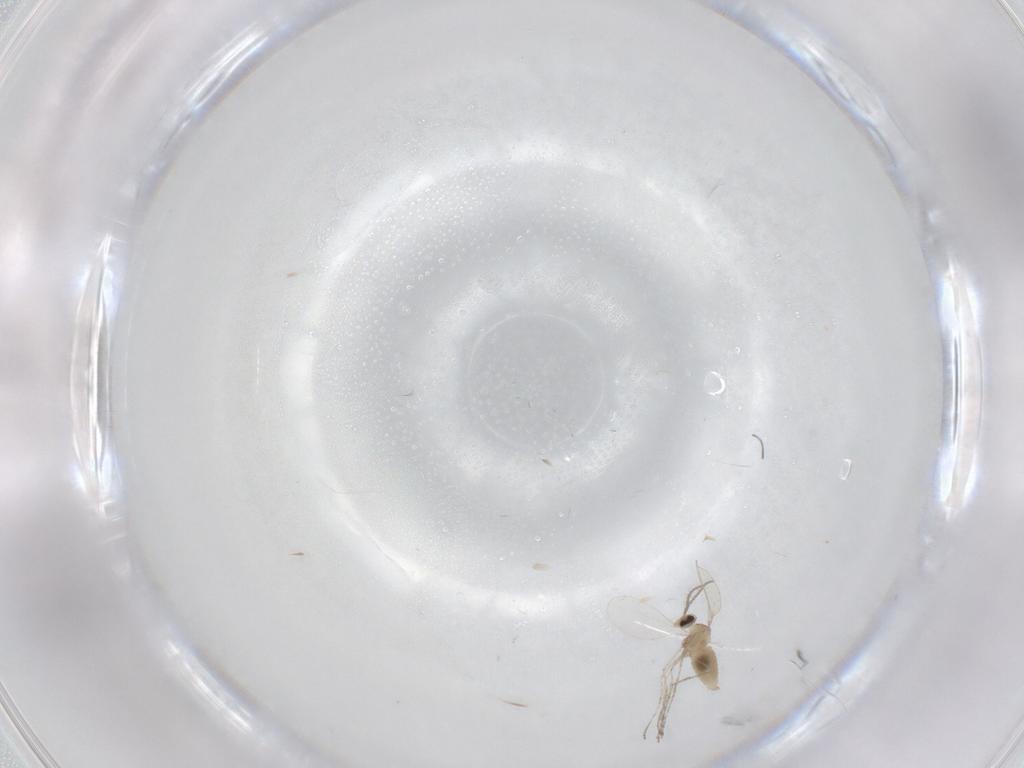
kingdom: Animalia
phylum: Arthropoda
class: Insecta
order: Diptera
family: Cecidomyiidae
